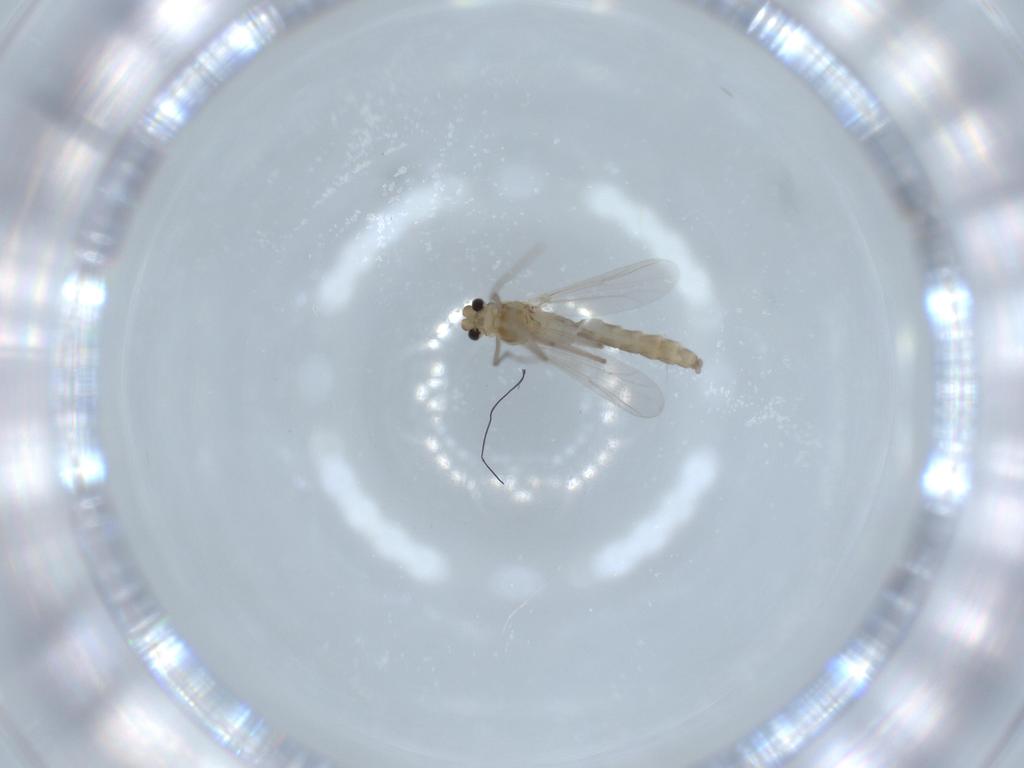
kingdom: Animalia
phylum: Arthropoda
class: Insecta
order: Diptera
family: Chironomidae
